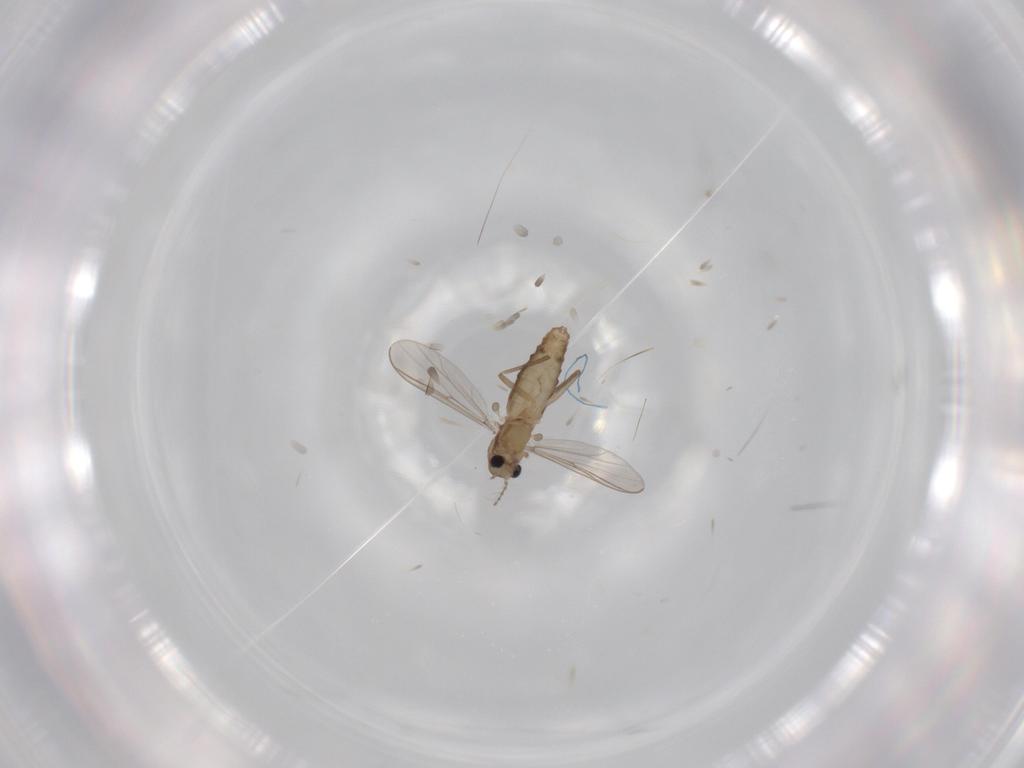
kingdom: Animalia
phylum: Arthropoda
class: Insecta
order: Diptera
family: Chironomidae
